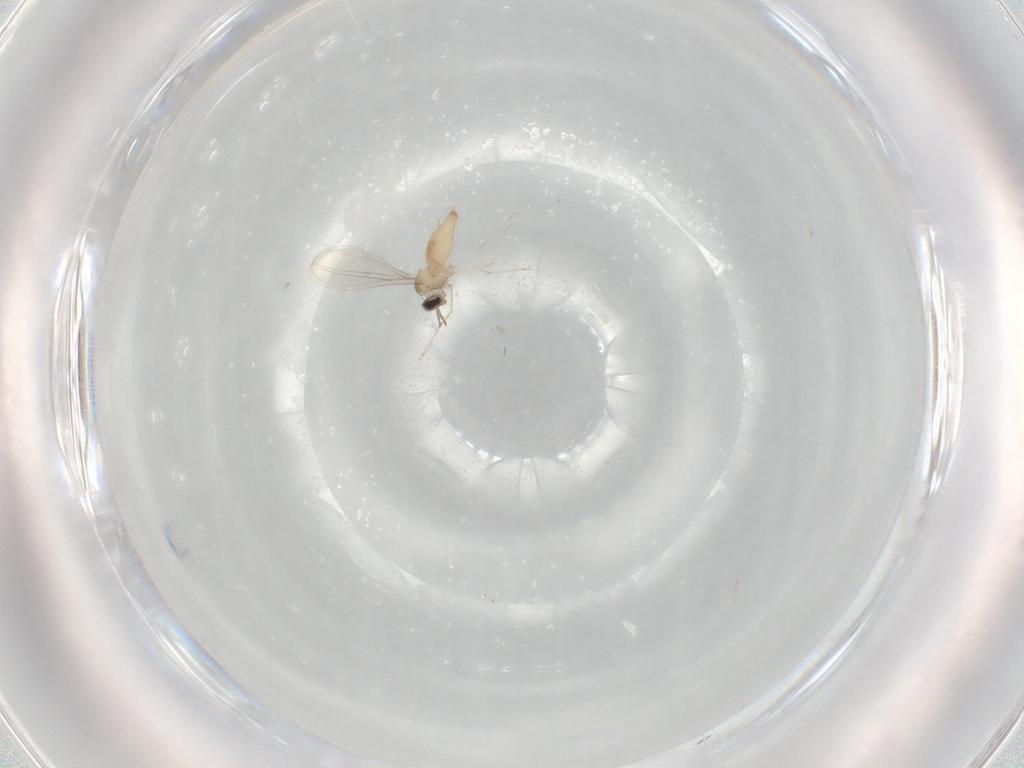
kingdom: Animalia
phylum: Arthropoda
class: Insecta
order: Diptera
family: Cecidomyiidae
